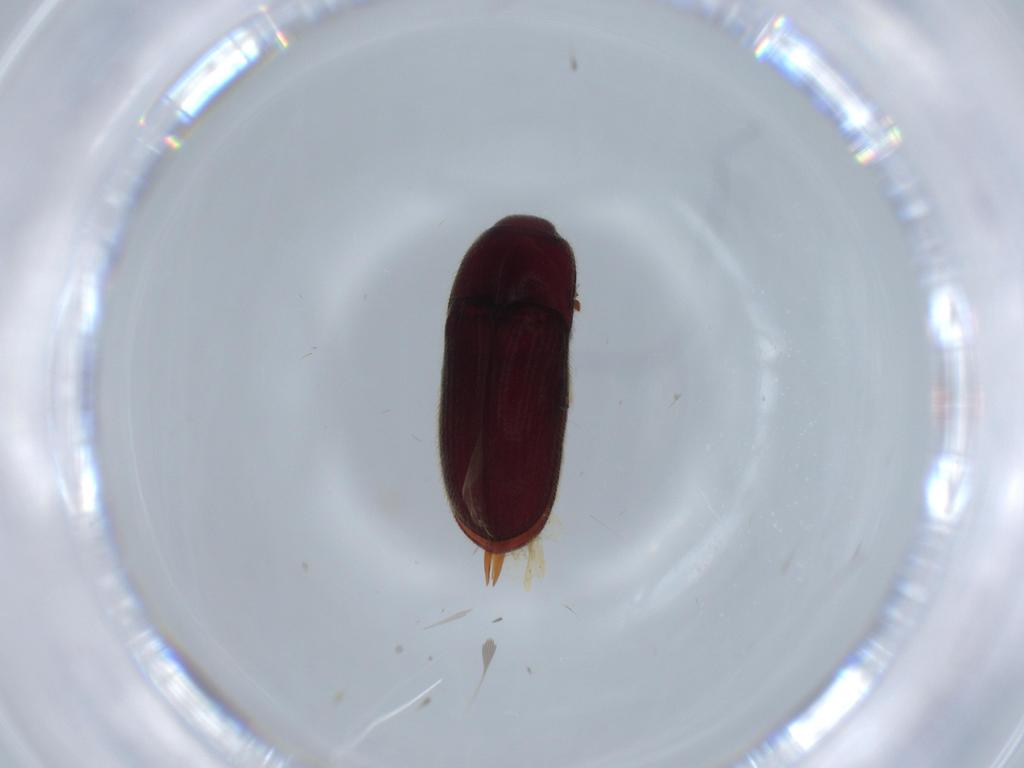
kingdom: Animalia
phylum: Arthropoda
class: Insecta
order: Coleoptera
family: Throscidae
